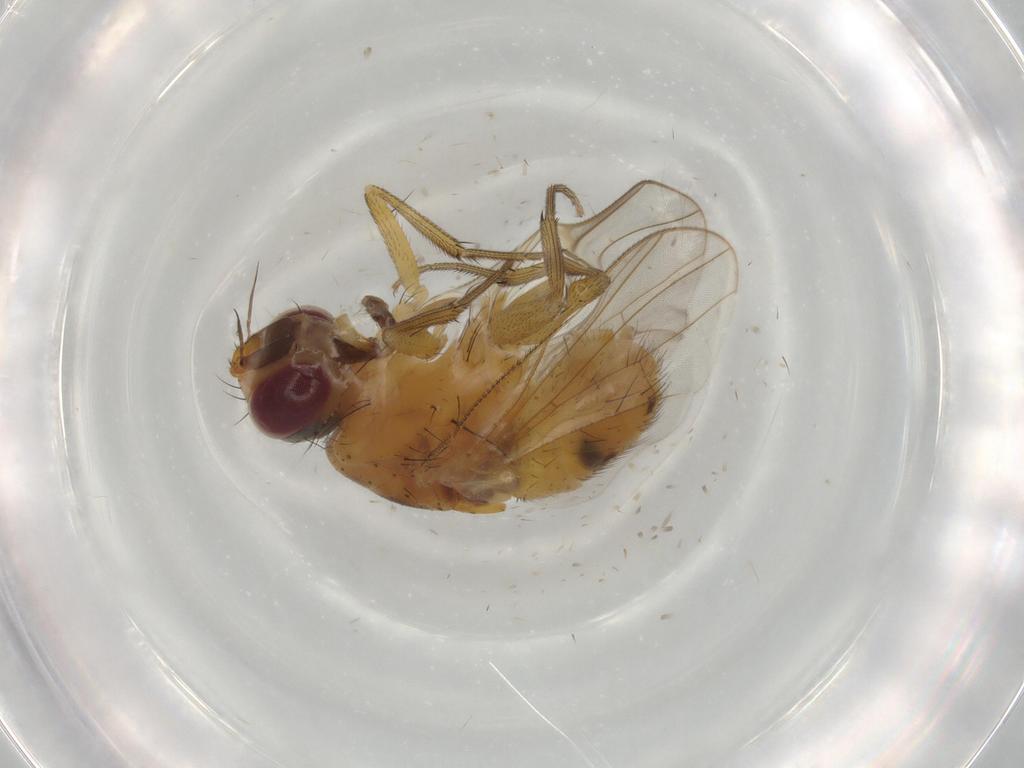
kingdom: Animalia
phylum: Arthropoda
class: Insecta
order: Diptera
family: Muscidae
